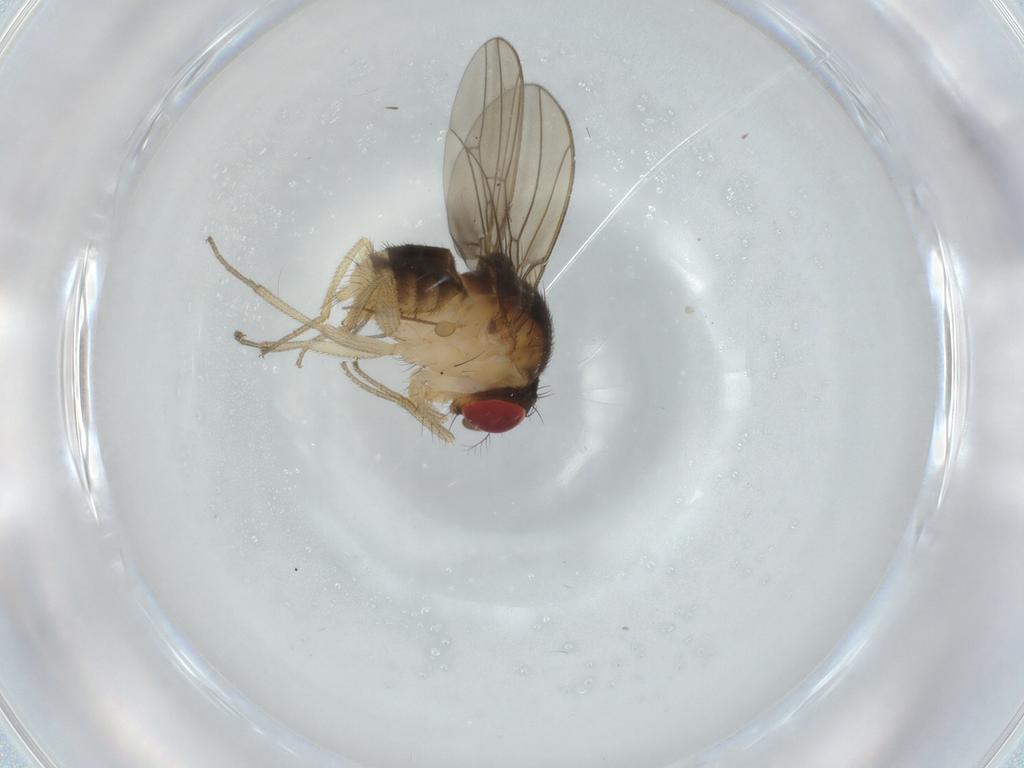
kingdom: Animalia
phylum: Arthropoda
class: Insecta
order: Diptera
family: Drosophilidae
